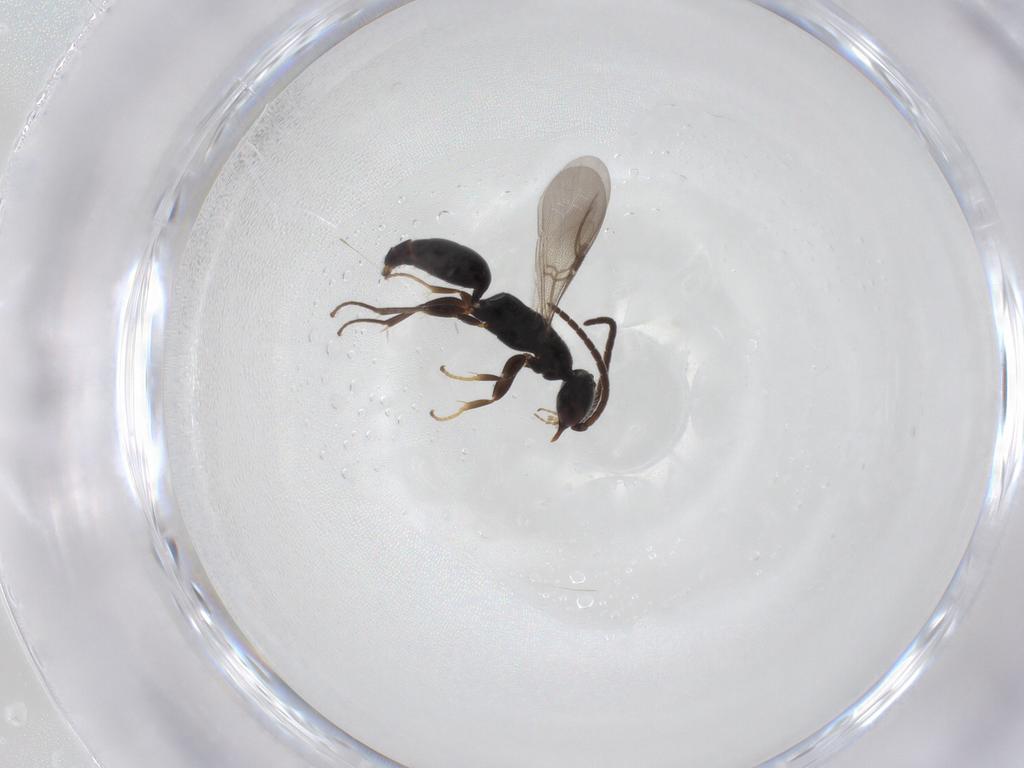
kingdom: Animalia
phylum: Arthropoda
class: Insecta
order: Hymenoptera
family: Bethylidae
